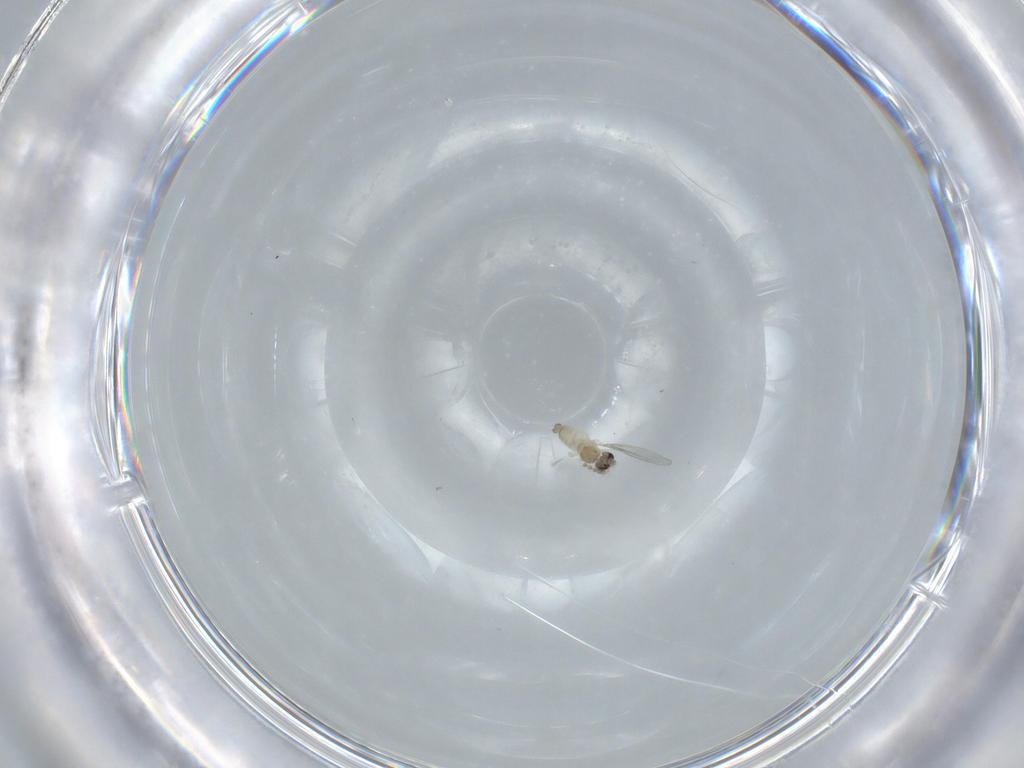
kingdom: Animalia
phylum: Arthropoda
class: Insecta
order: Diptera
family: Cecidomyiidae
